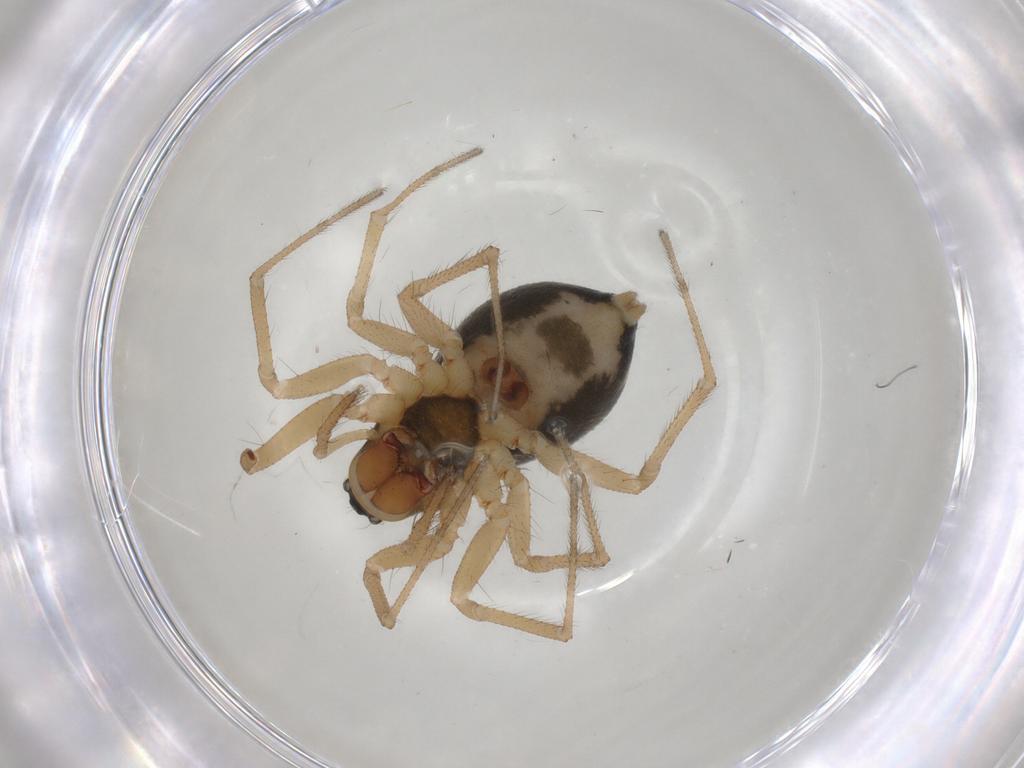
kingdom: Animalia
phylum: Arthropoda
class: Arachnida
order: Araneae
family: Linyphiidae
